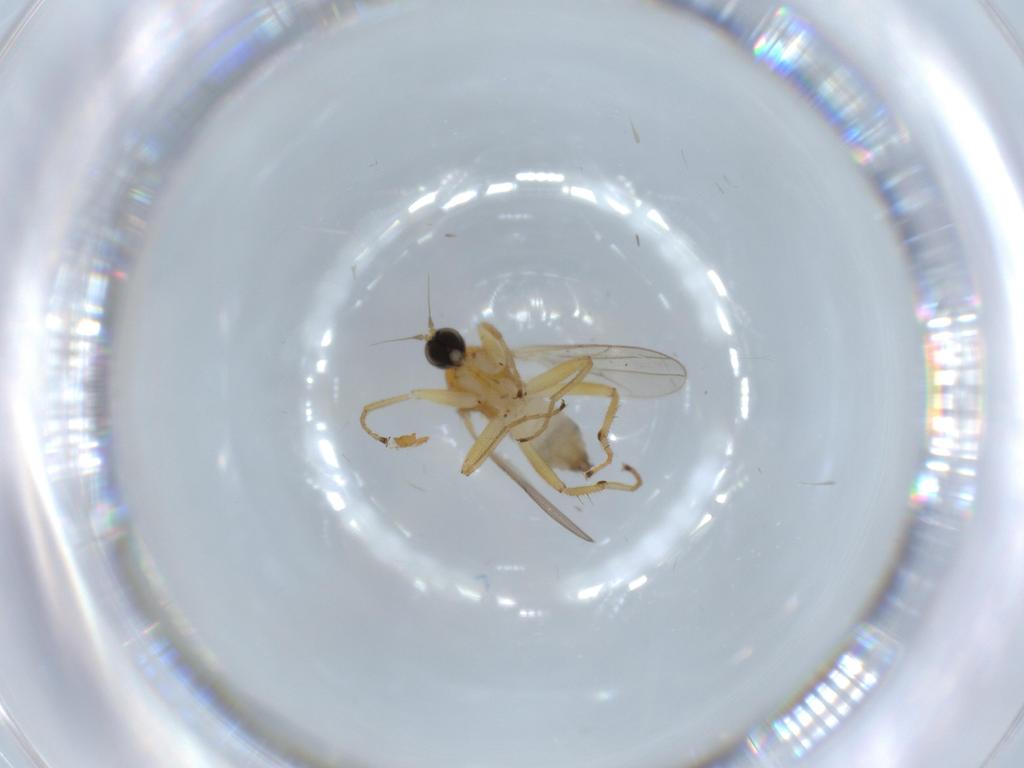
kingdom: Animalia
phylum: Arthropoda
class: Insecta
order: Diptera
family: Hybotidae
